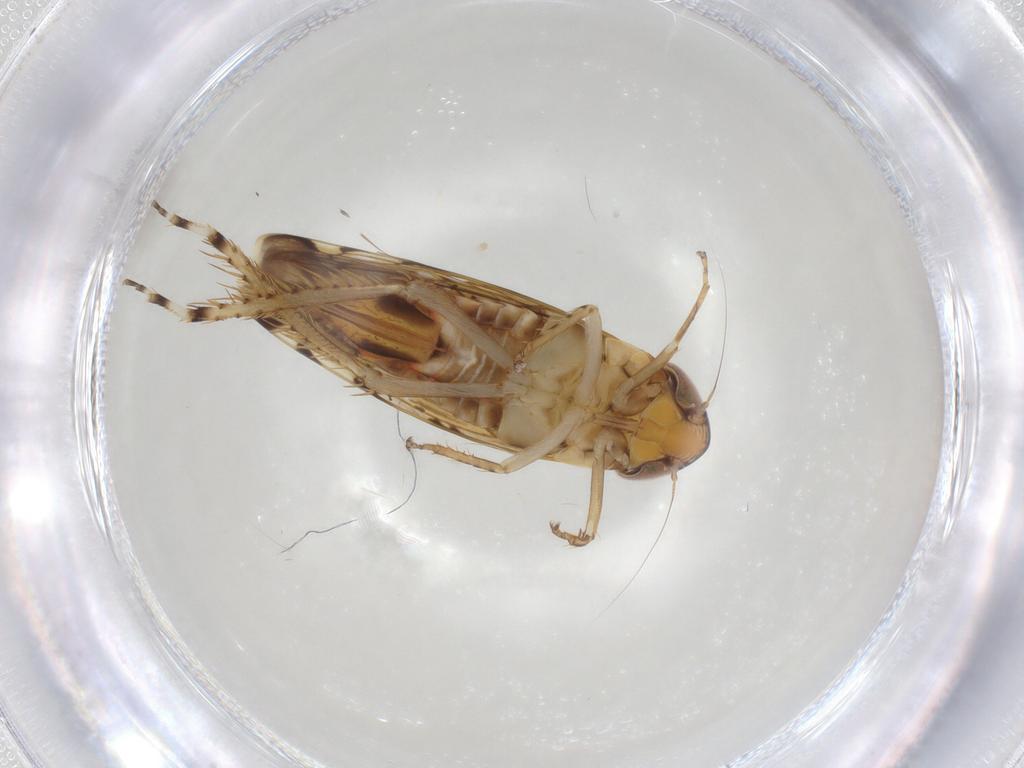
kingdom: Animalia
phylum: Arthropoda
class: Insecta
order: Hemiptera
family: Cicadellidae
